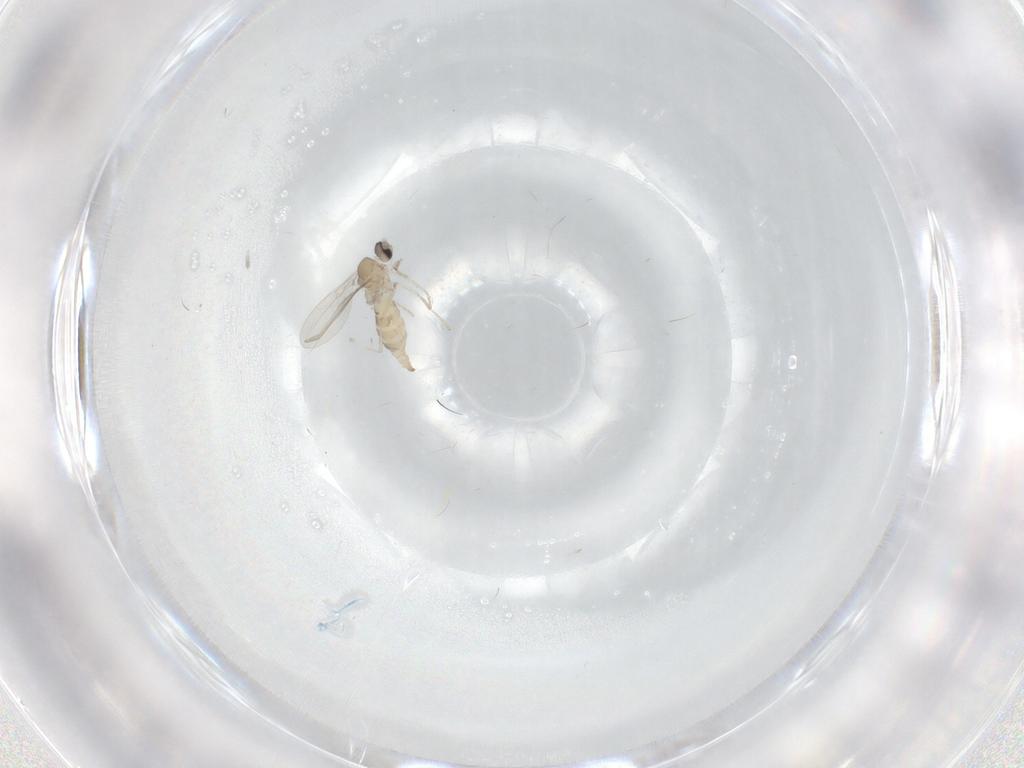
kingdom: Animalia
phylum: Arthropoda
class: Insecta
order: Diptera
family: Cecidomyiidae
